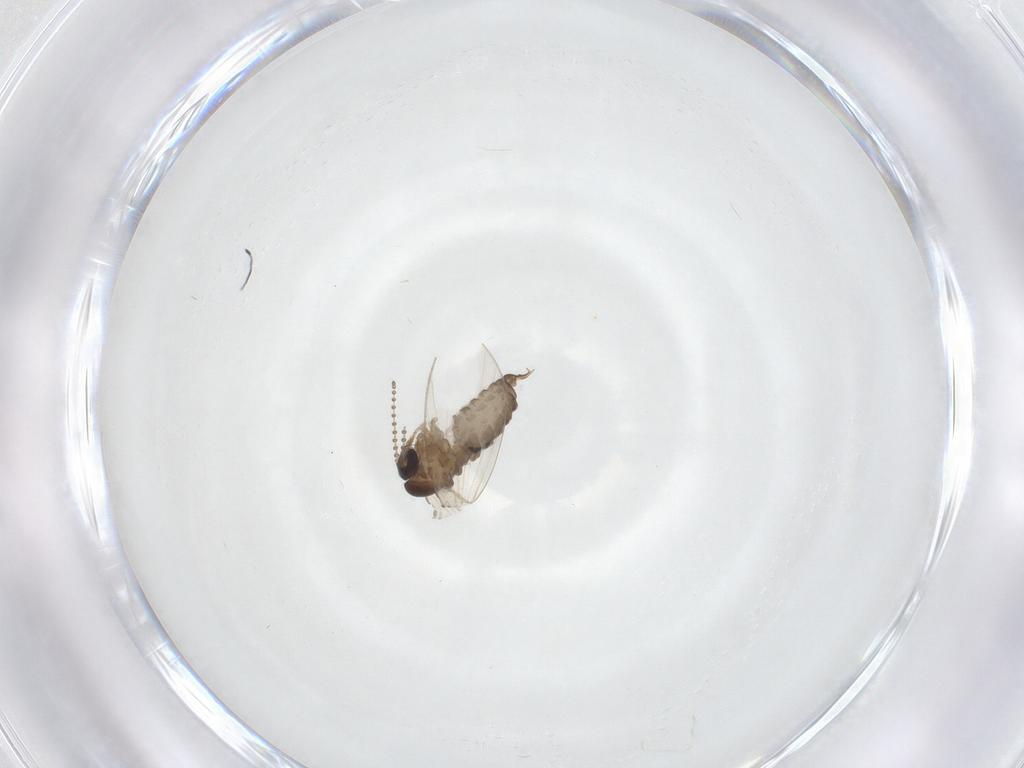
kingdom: Animalia
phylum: Arthropoda
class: Insecta
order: Diptera
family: Psychodidae
